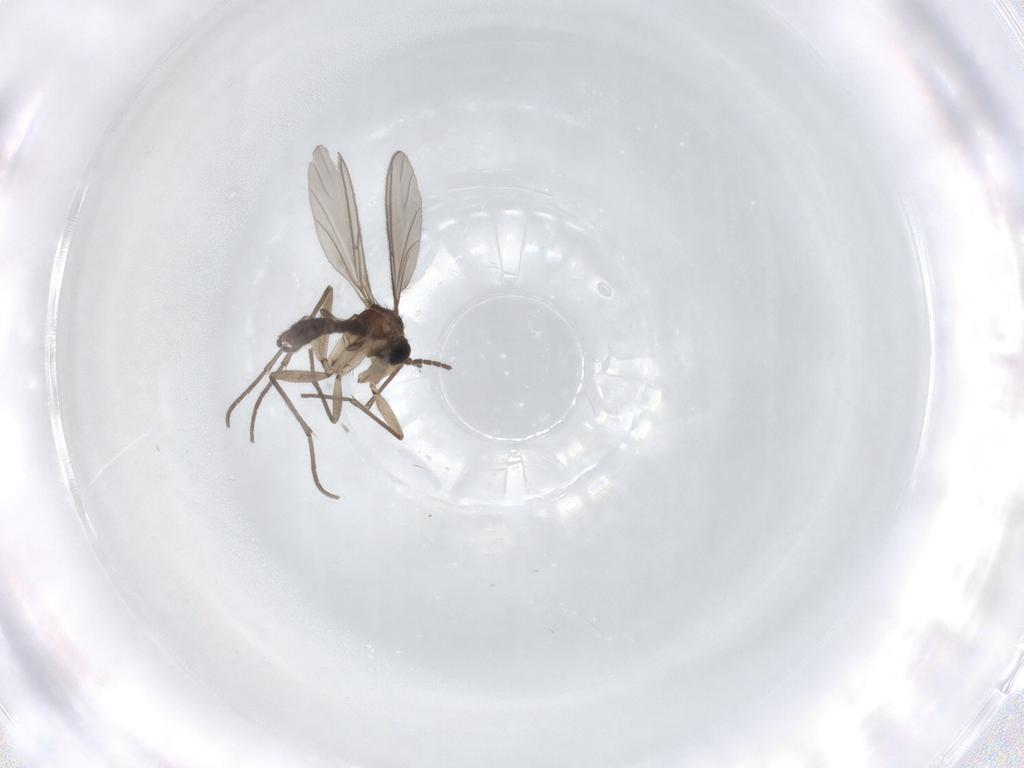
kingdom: Animalia
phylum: Arthropoda
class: Insecta
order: Diptera
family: Sciaridae
